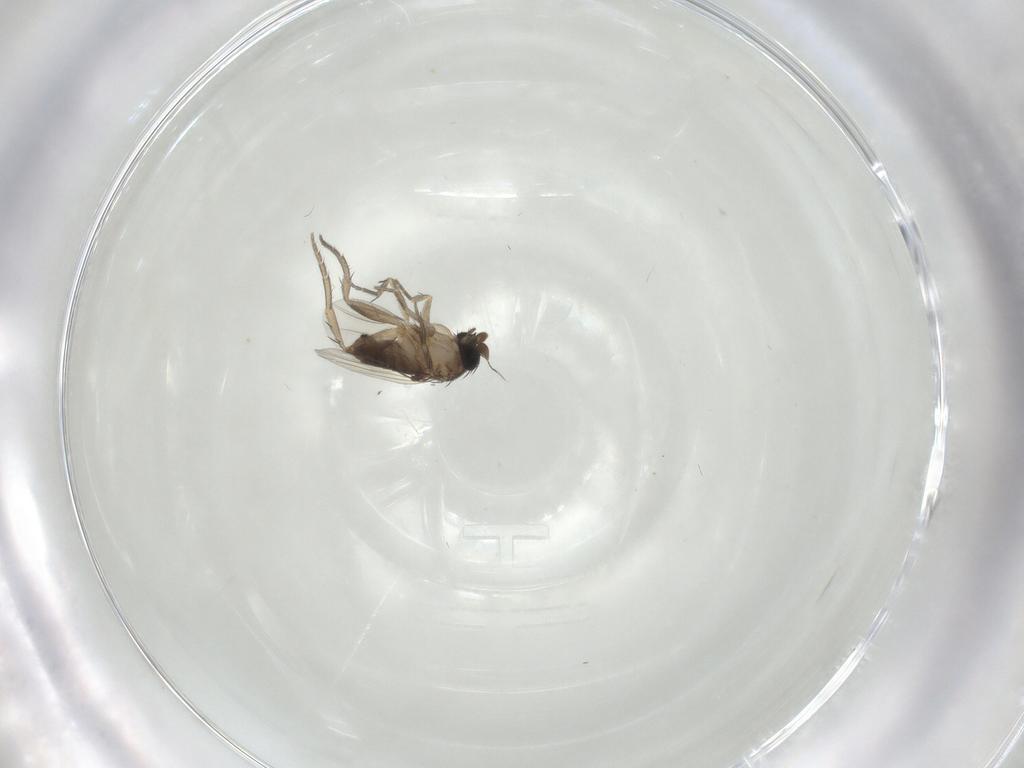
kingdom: Animalia
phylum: Arthropoda
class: Insecta
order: Diptera
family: Phoridae
